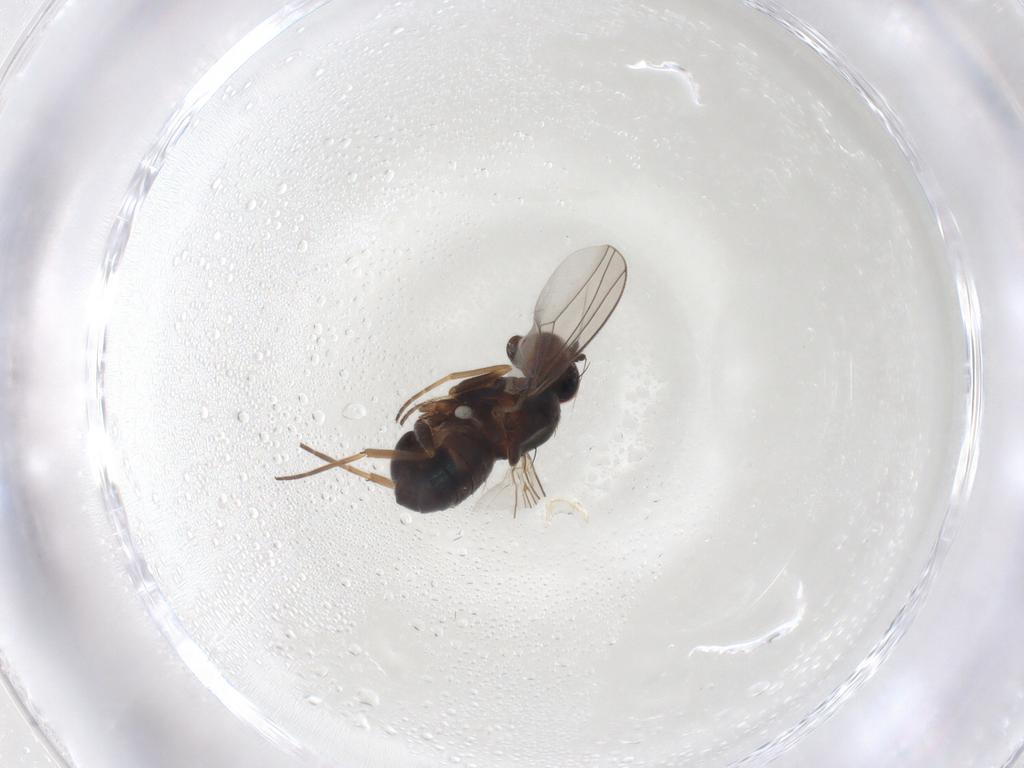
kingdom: Animalia
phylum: Arthropoda
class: Insecta
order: Diptera
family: Dolichopodidae
